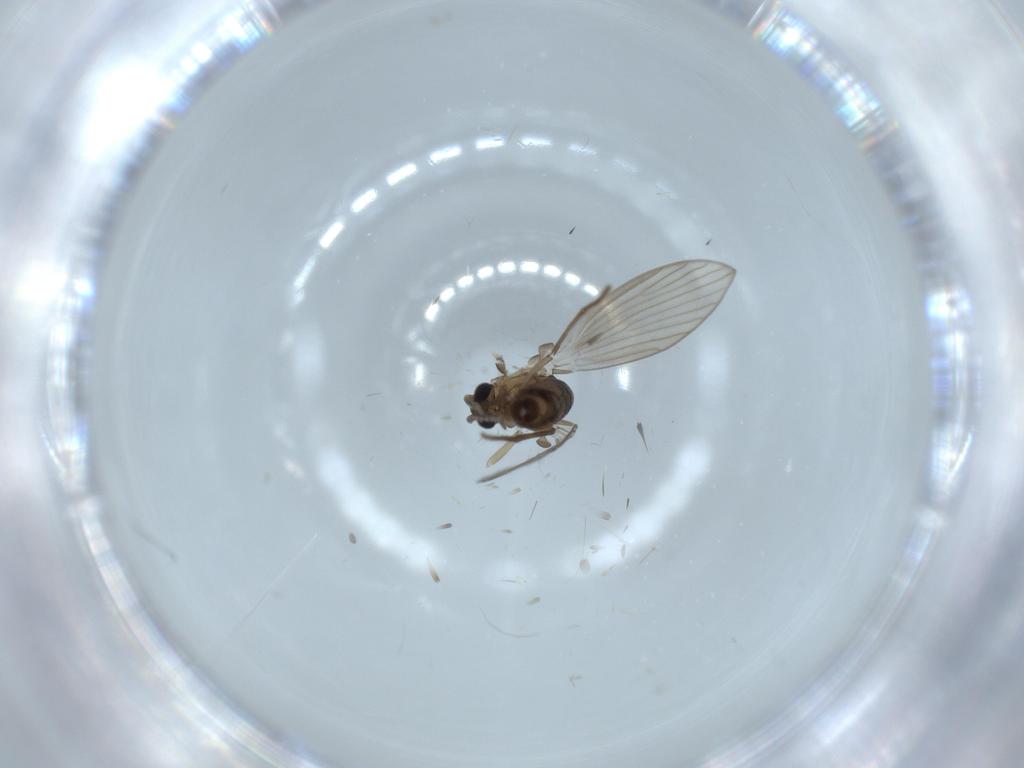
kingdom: Animalia
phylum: Arthropoda
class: Insecta
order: Diptera
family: Psychodidae
